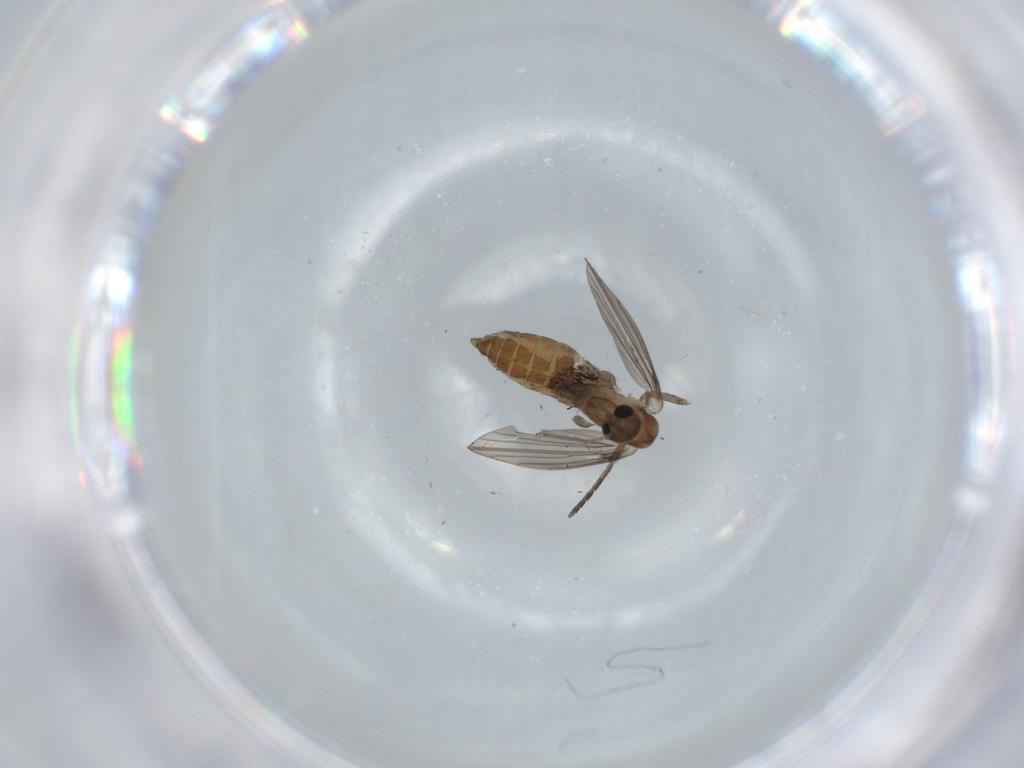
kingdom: Animalia
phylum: Arthropoda
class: Insecta
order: Diptera
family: Psychodidae
